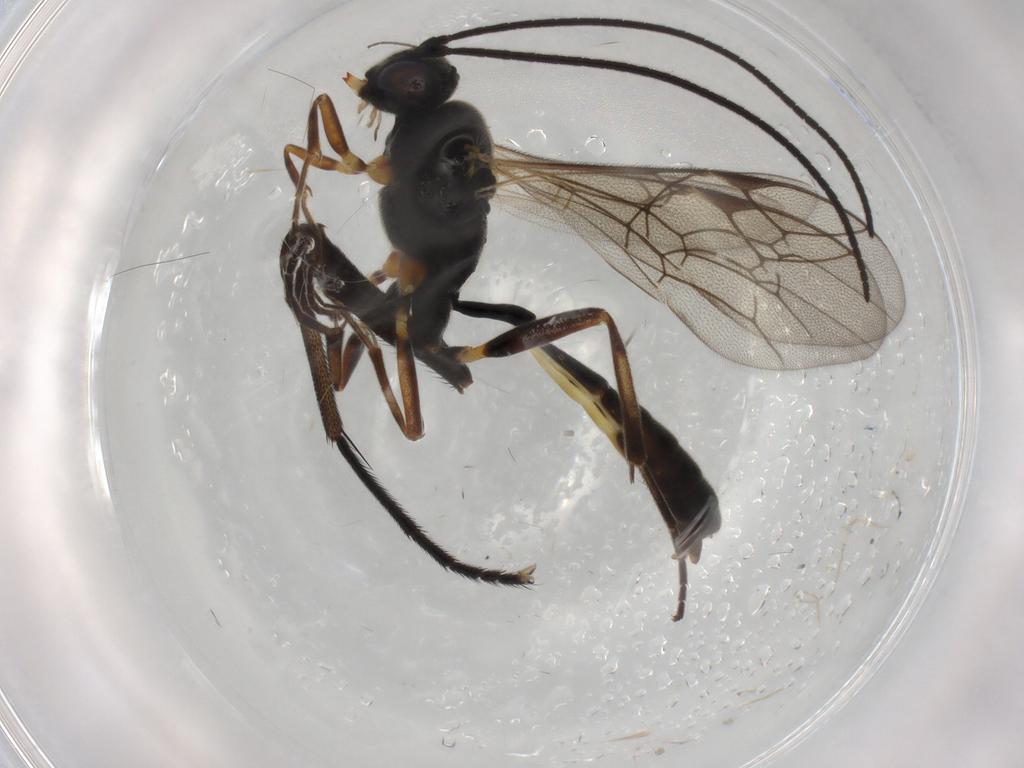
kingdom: Animalia
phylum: Arthropoda
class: Insecta
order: Hymenoptera
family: Ichneumonidae
